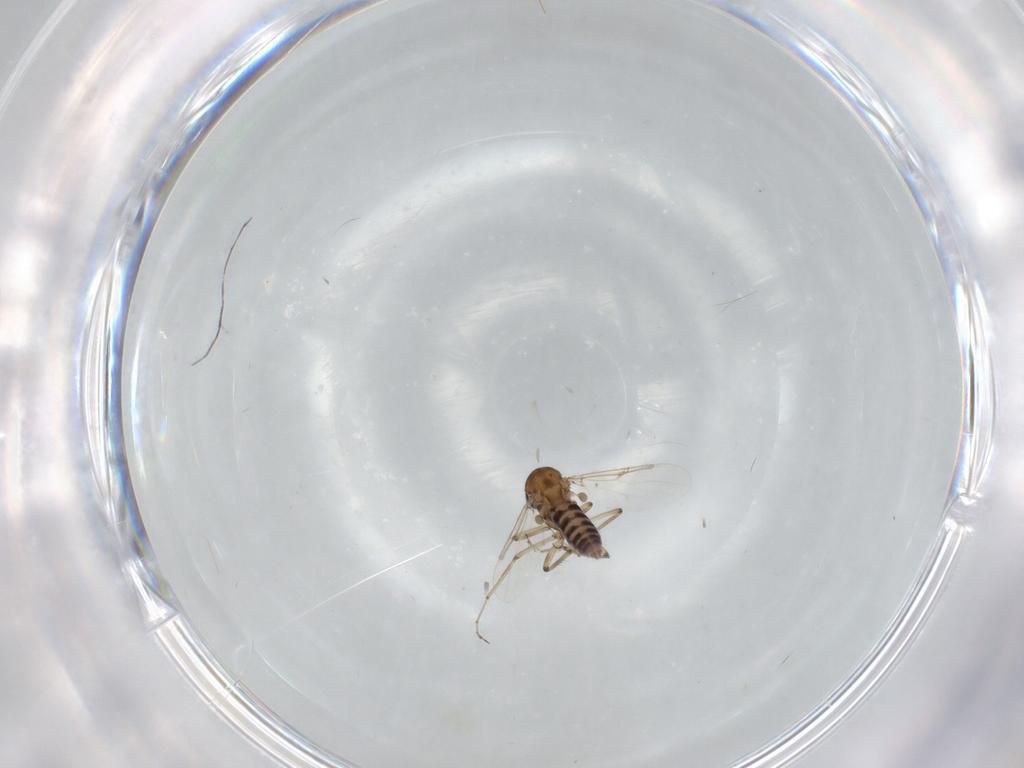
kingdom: Animalia
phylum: Arthropoda
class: Insecta
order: Diptera
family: Ceratopogonidae
